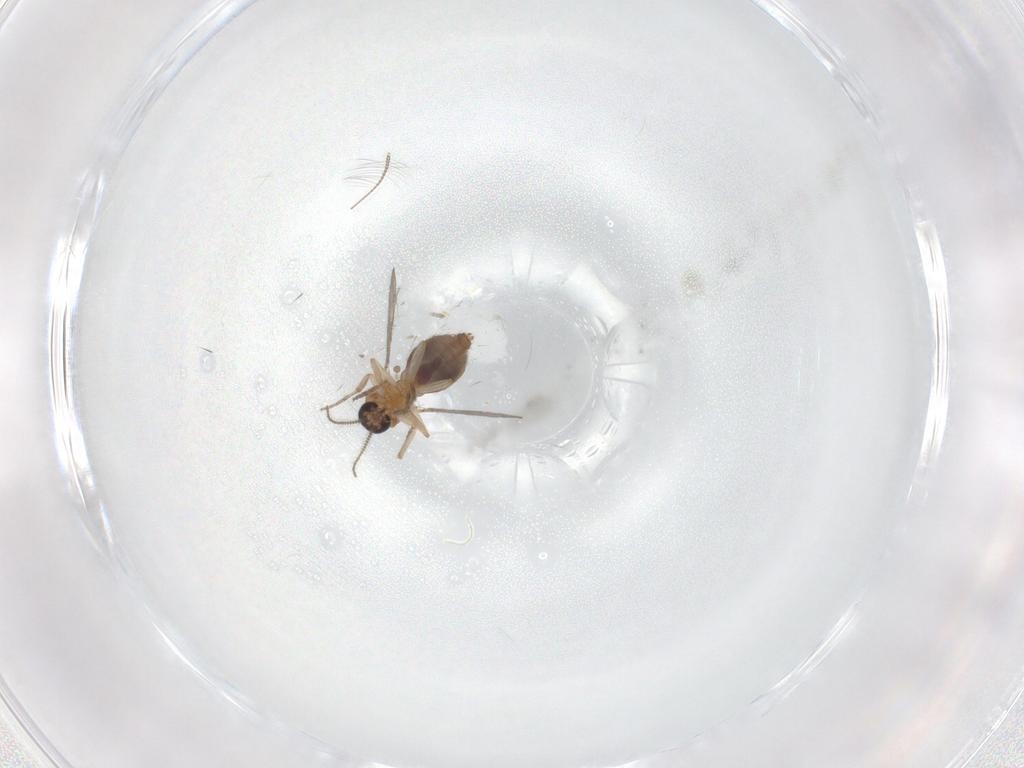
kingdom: Animalia
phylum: Arthropoda
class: Insecta
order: Diptera
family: Chironomidae
